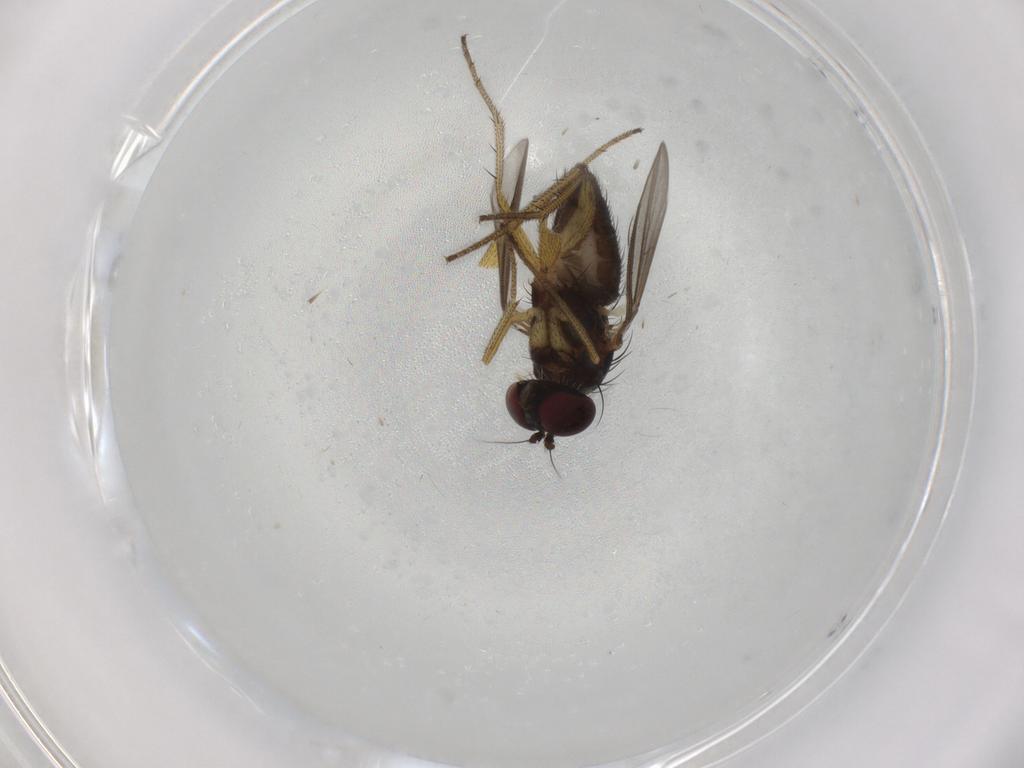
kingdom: Animalia
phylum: Arthropoda
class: Insecta
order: Diptera
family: Dolichopodidae
